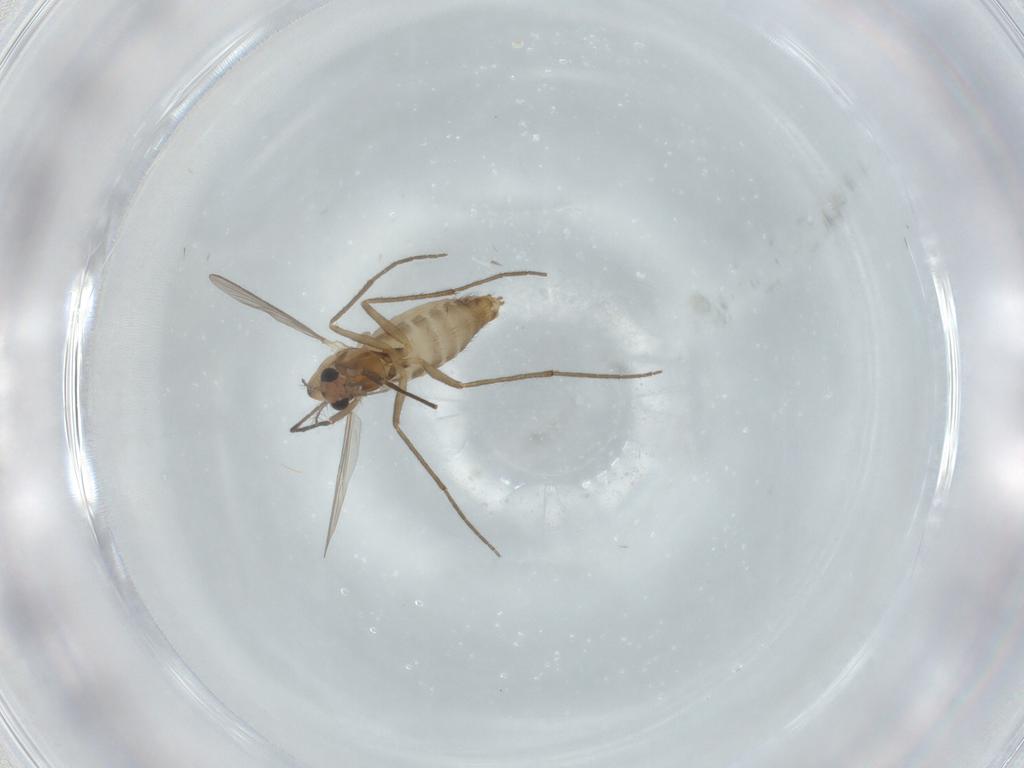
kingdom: Animalia
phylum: Arthropoda
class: Insecta
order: Diptera
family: Chironomidae
